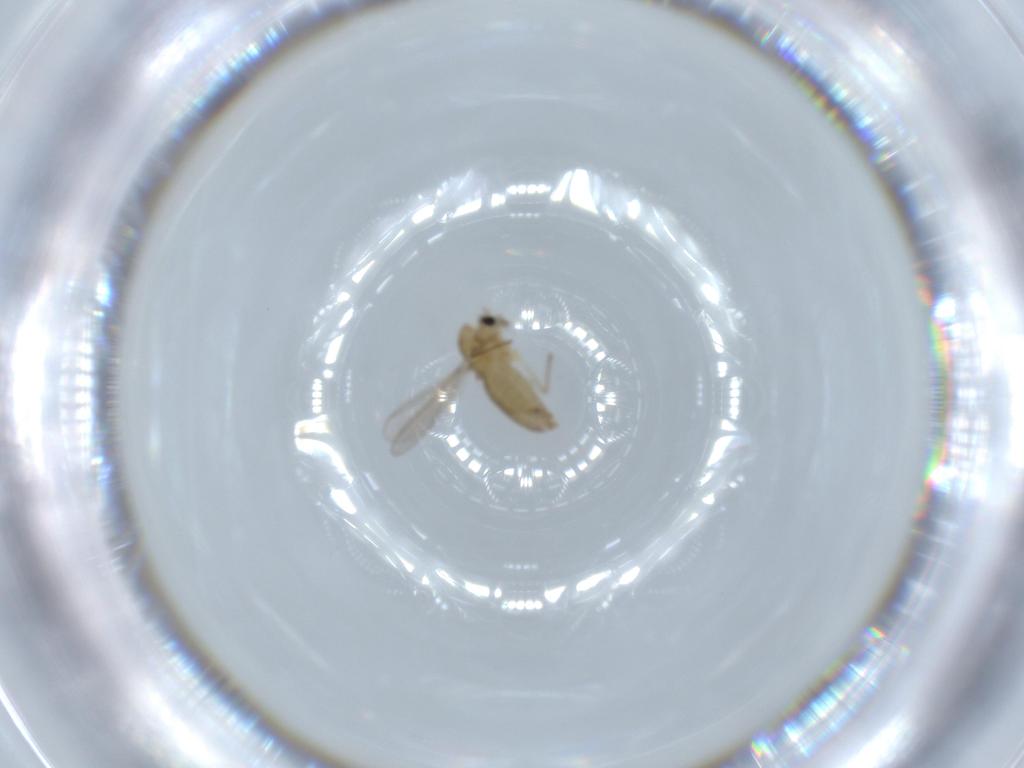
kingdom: Animalia
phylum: Arthropoda
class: Insecta
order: Diptera
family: Chironomidae
